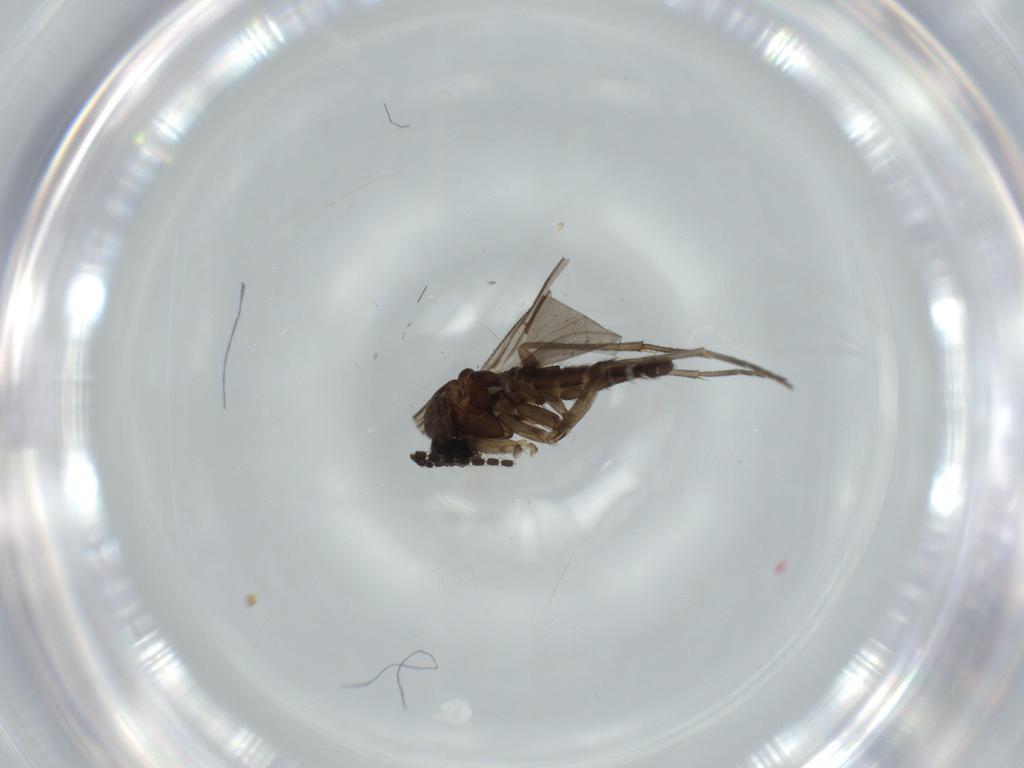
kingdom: Animalia
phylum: Arthropoda
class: Insecta
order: Diptera
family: Sciaridae
